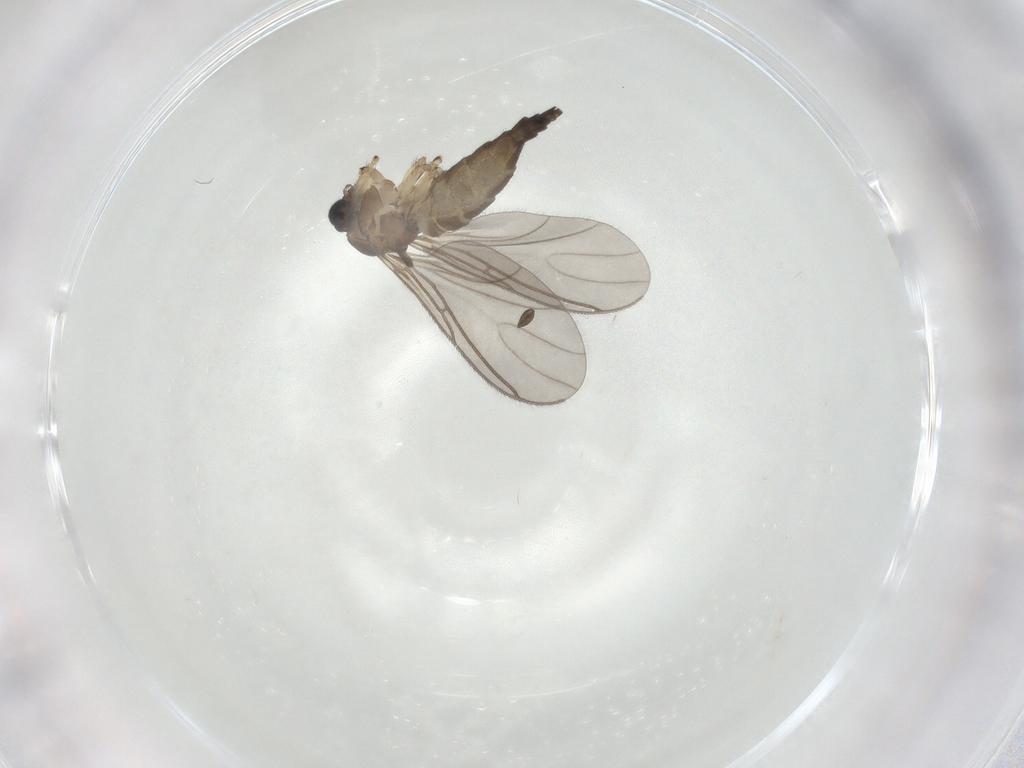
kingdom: Animalia
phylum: Arthropoda
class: Insecta
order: Diptera
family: Sciaridae
